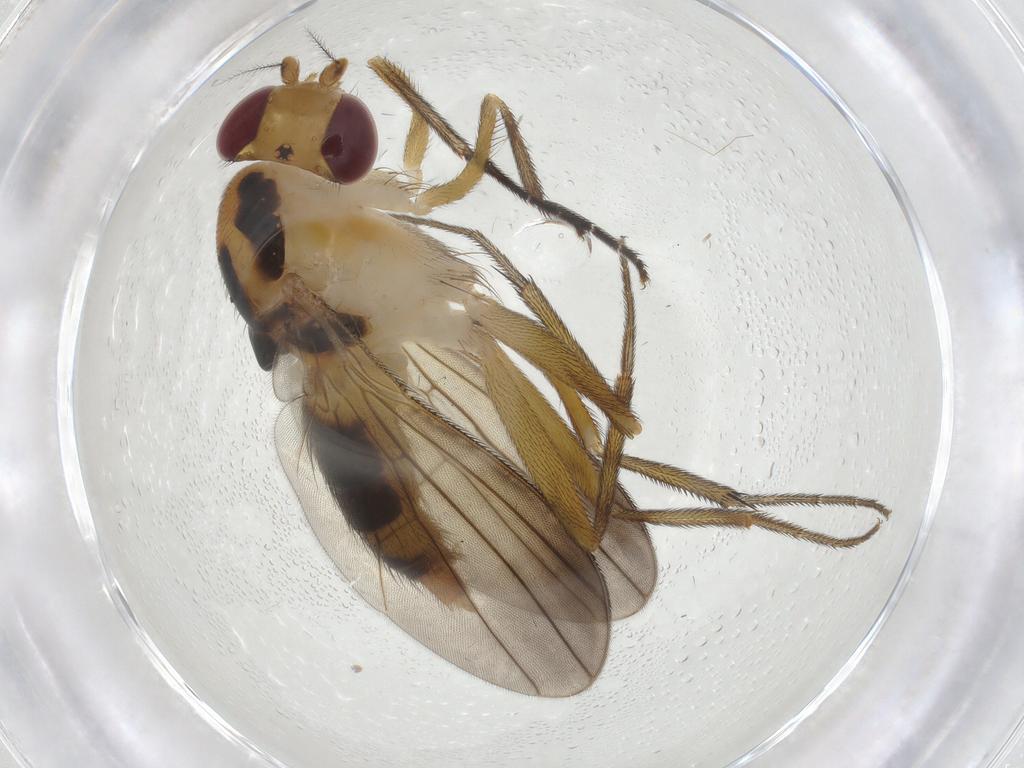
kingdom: Animalia
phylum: Arthropoda
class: Insecta
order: Diptera
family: Clusiidae
